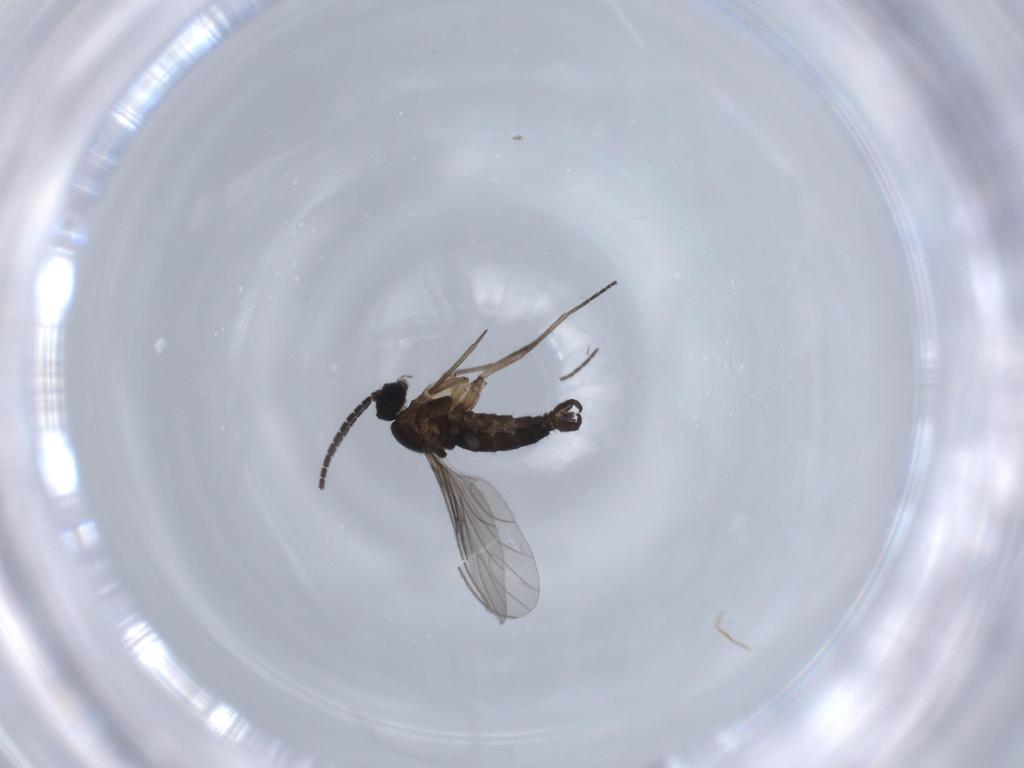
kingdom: Animalia
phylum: Arthropoda
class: Insecta
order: Diptera
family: Sciaridae
